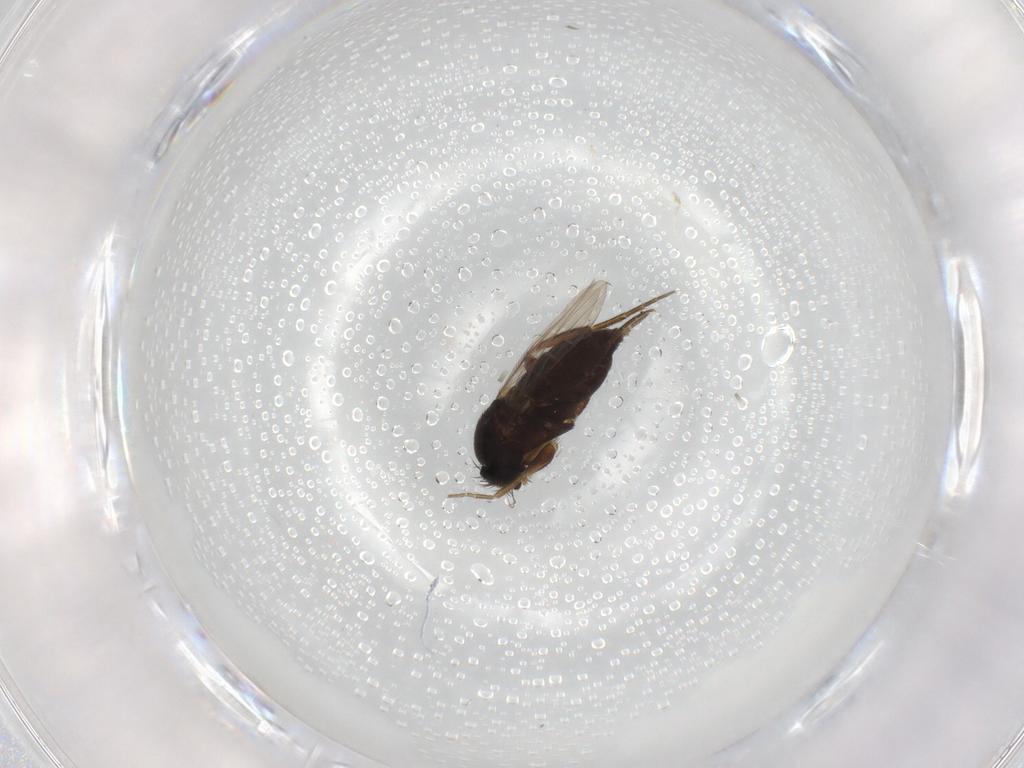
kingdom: Animalia
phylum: Arthropoda
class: Insecta
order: Diptera
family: Phoridae
